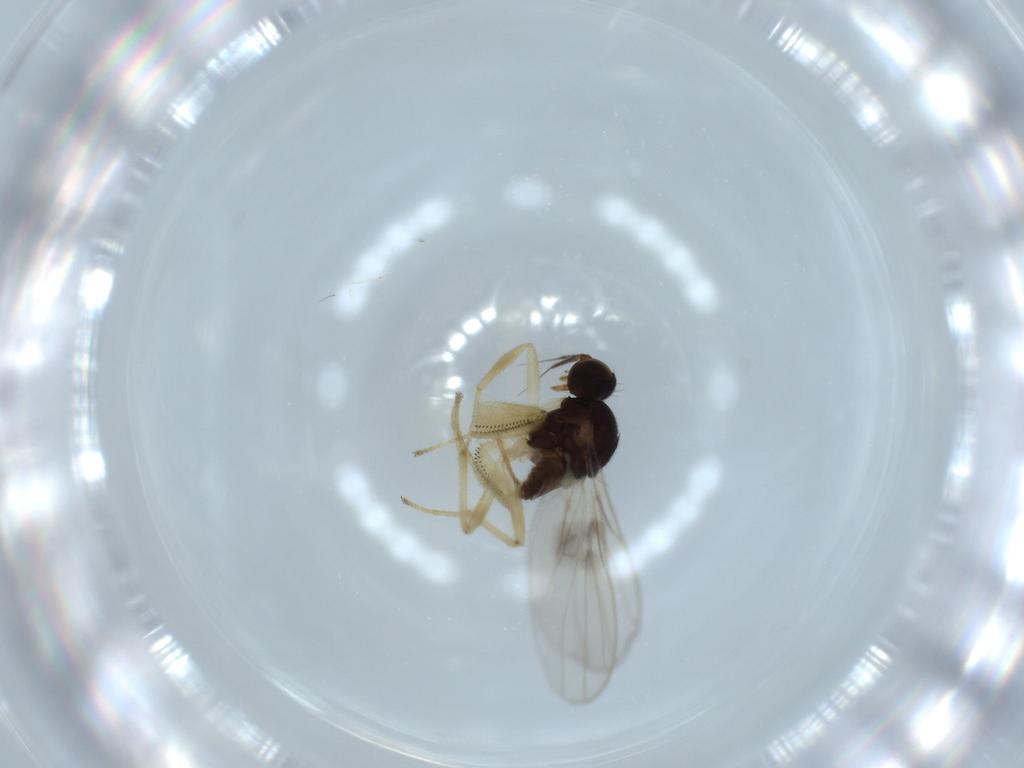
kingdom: Animalia
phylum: Arthropoda
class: Insecta
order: Diptera
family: Hybotidae
